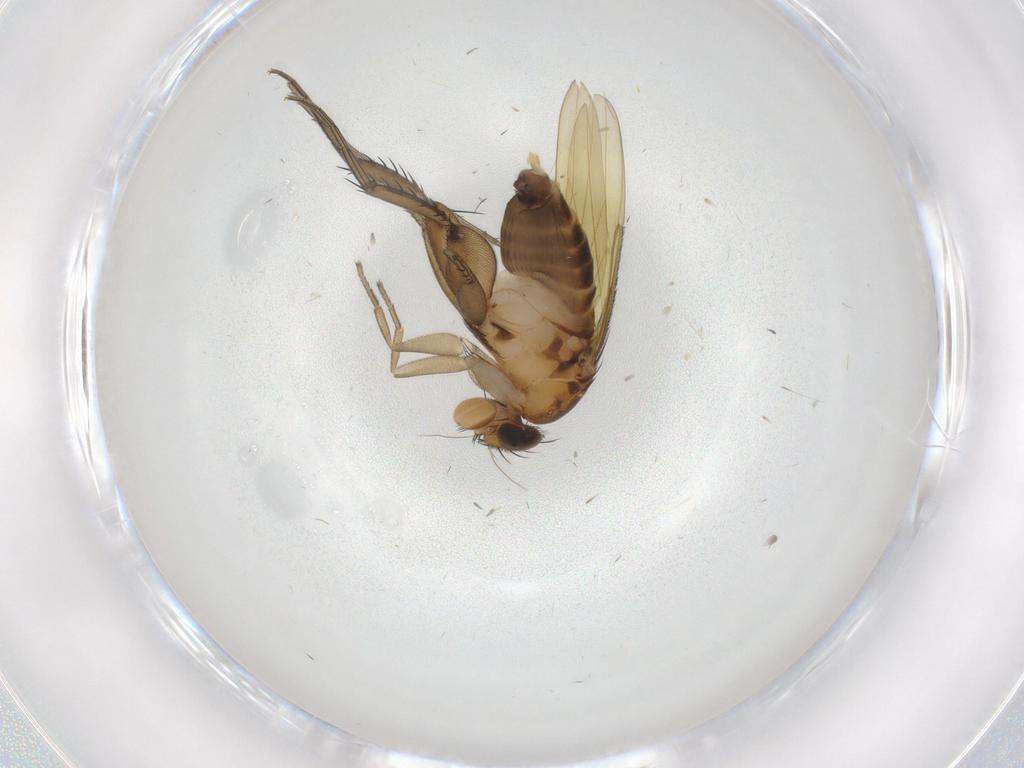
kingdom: Animalia
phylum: Arthropoda
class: Insecta
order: Diptera
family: Phoridae
